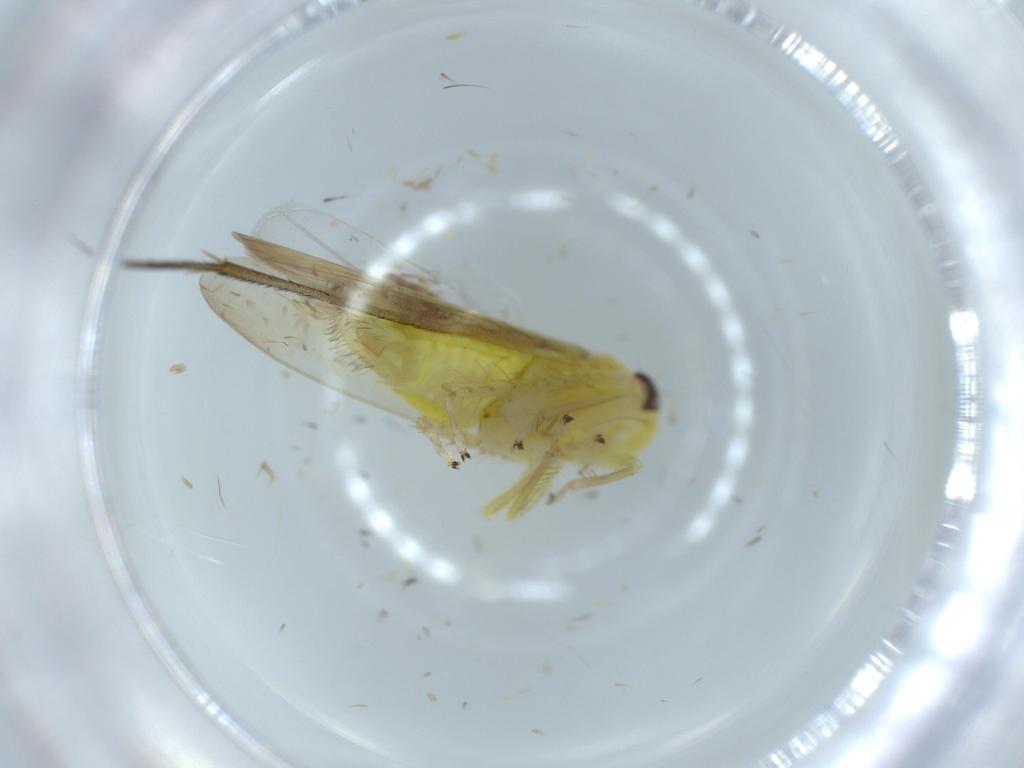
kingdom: Animalia
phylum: Arthropoda
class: Insecta
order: Hemiptera
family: Cicadellidae
